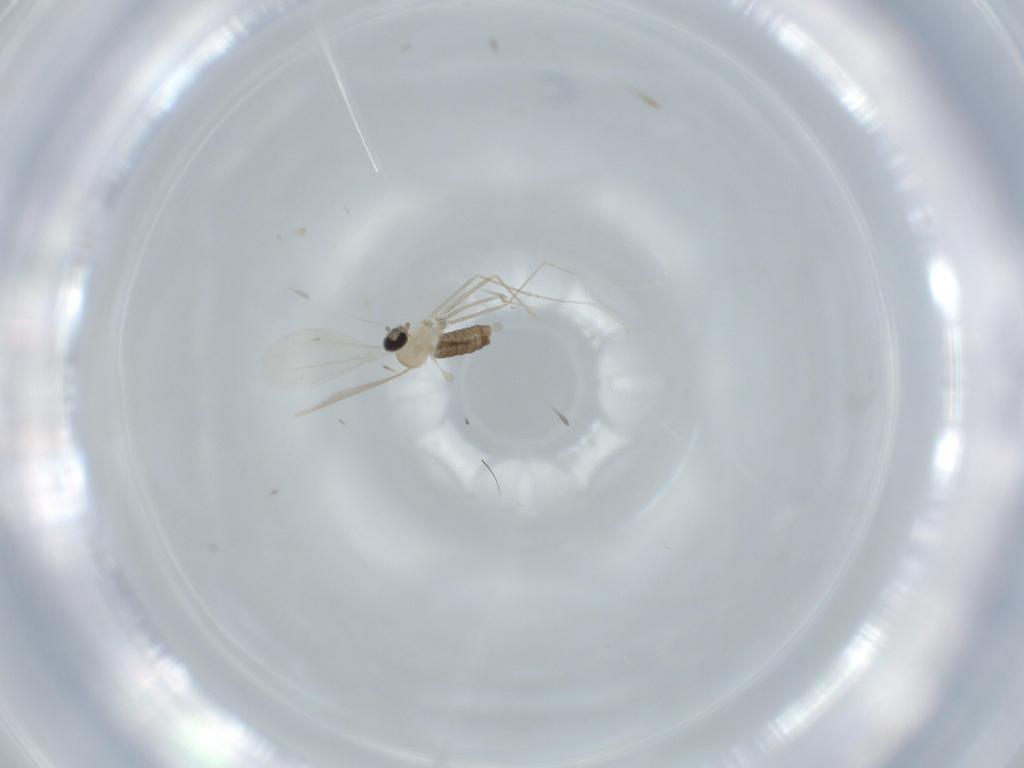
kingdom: Animalia
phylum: Arthropoda
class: Insecta
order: Diptera
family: Cecidomyiidae
